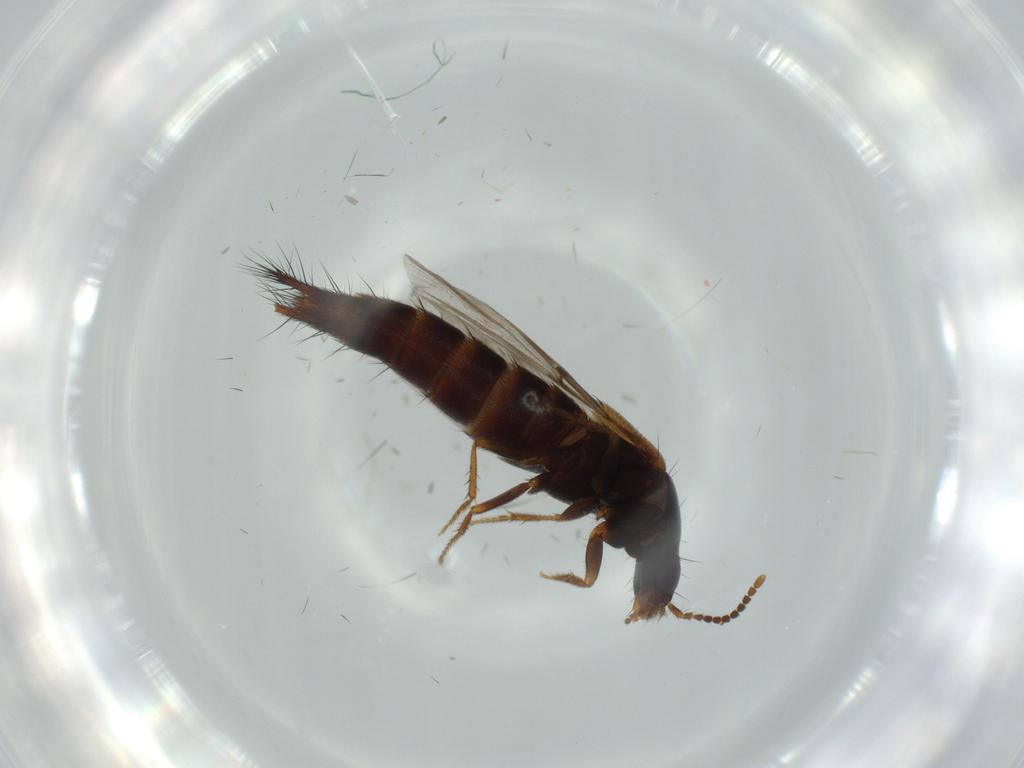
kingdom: Animalia
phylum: Arthropoda
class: Insecta
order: Coleoptera
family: Staphylinidae
